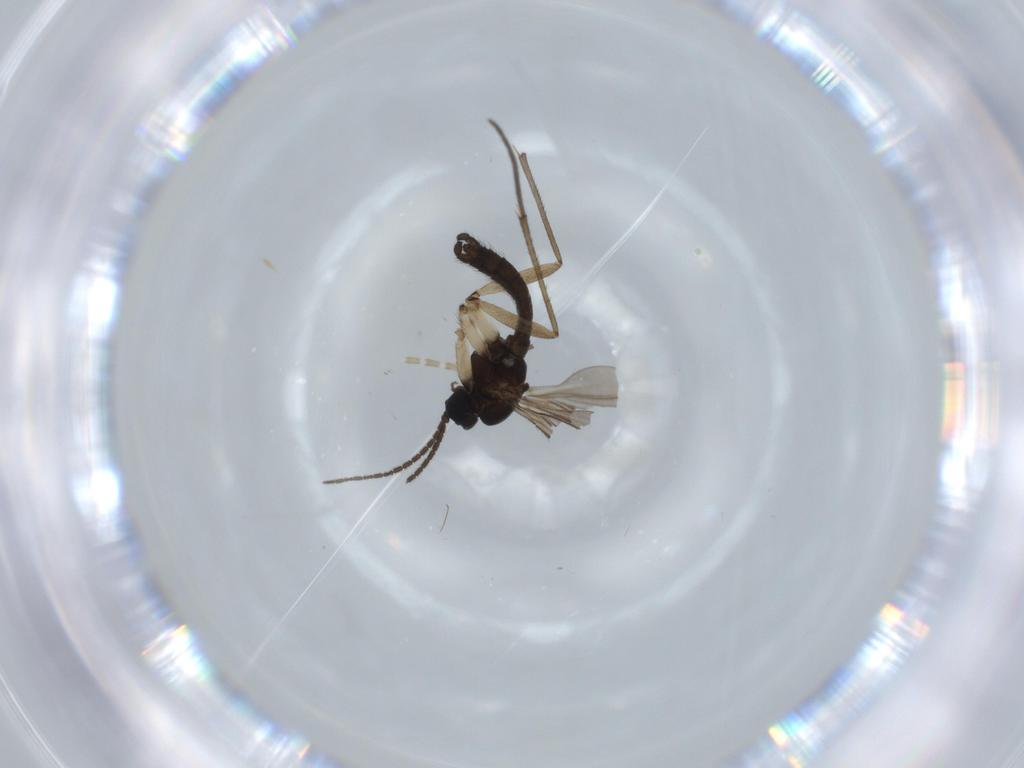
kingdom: Animalia
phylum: Arthropoda
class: Insecta
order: Diptera
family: Sciaridae
